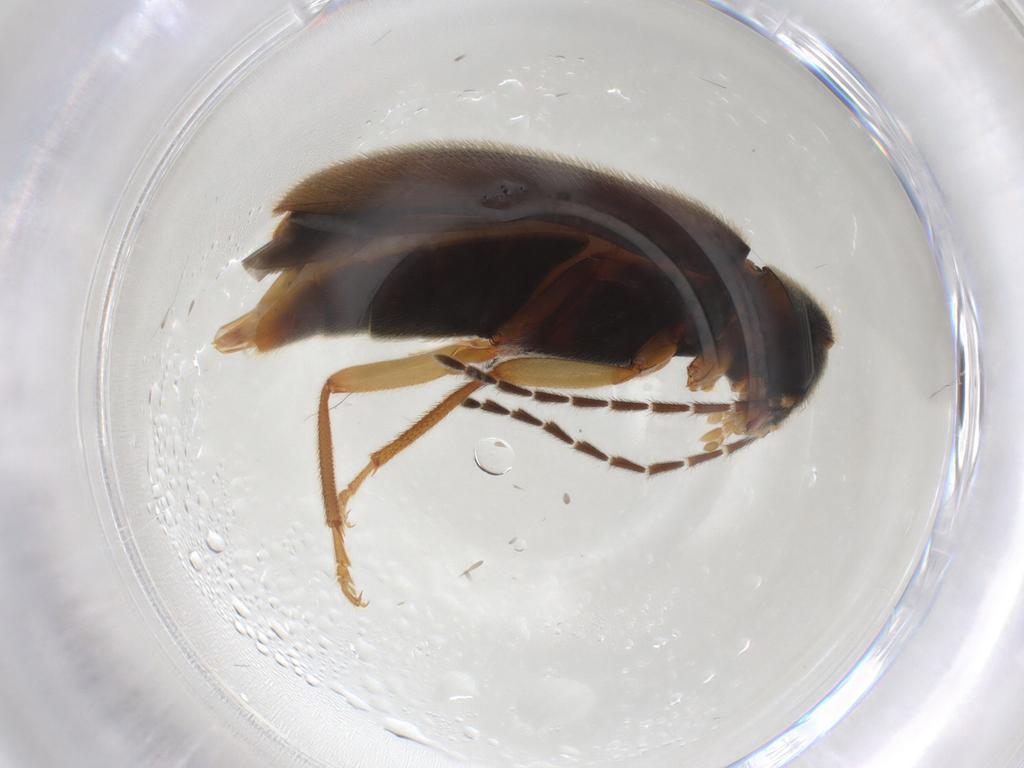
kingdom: Animalia
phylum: Arthropoda
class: Insecta
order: Coleoptera
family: Ptilodactylidae
